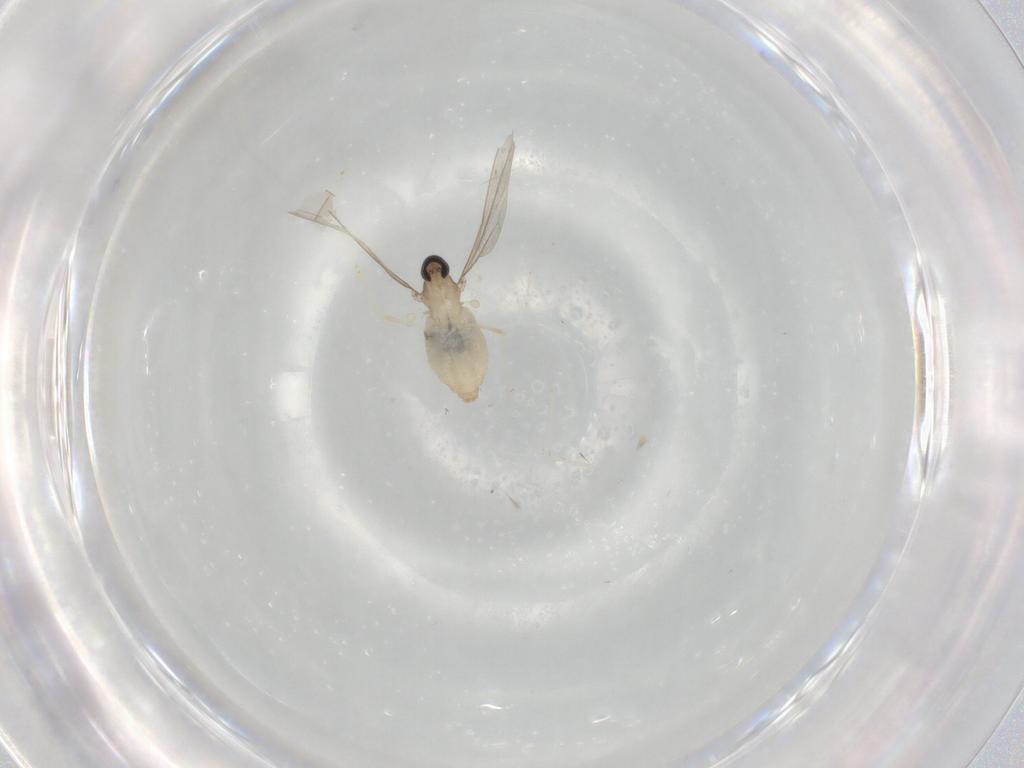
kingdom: Animalia
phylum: Arthropoda
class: Insecta
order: Diptera
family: Cecidomyiidae
